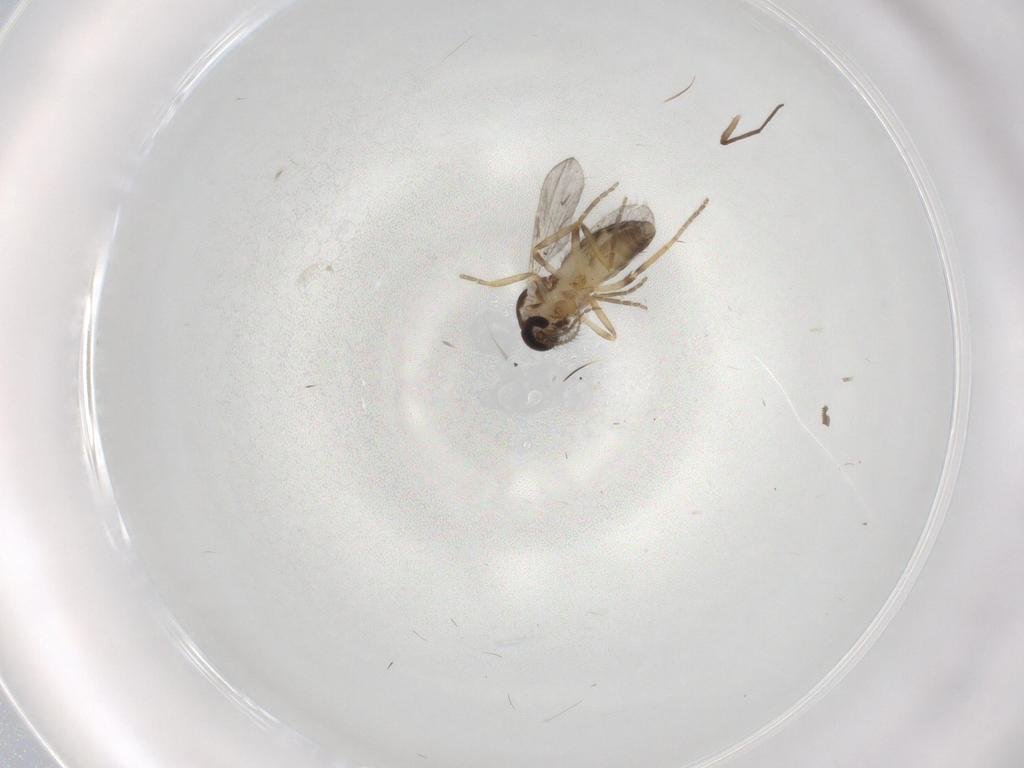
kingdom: Animalia
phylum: Arthropoda
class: Insecta
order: Diptera
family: Ceratopogonidae
